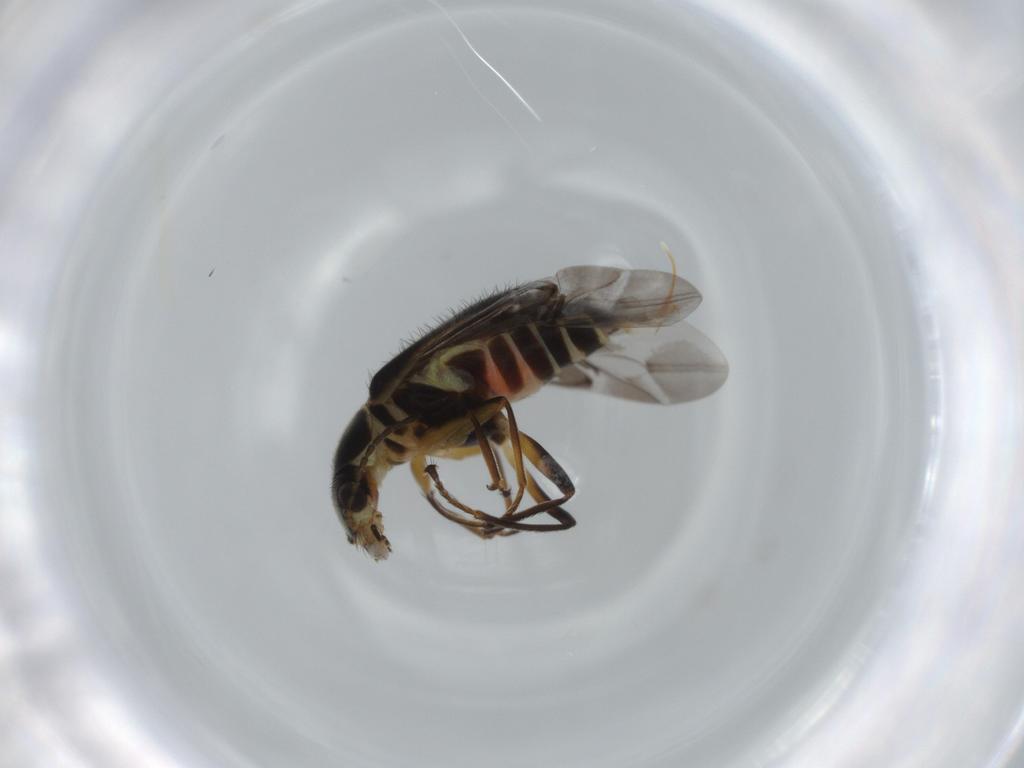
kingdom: Animalia
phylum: Arthropoda
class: Insecta
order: Coleoptera
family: Melyridae
